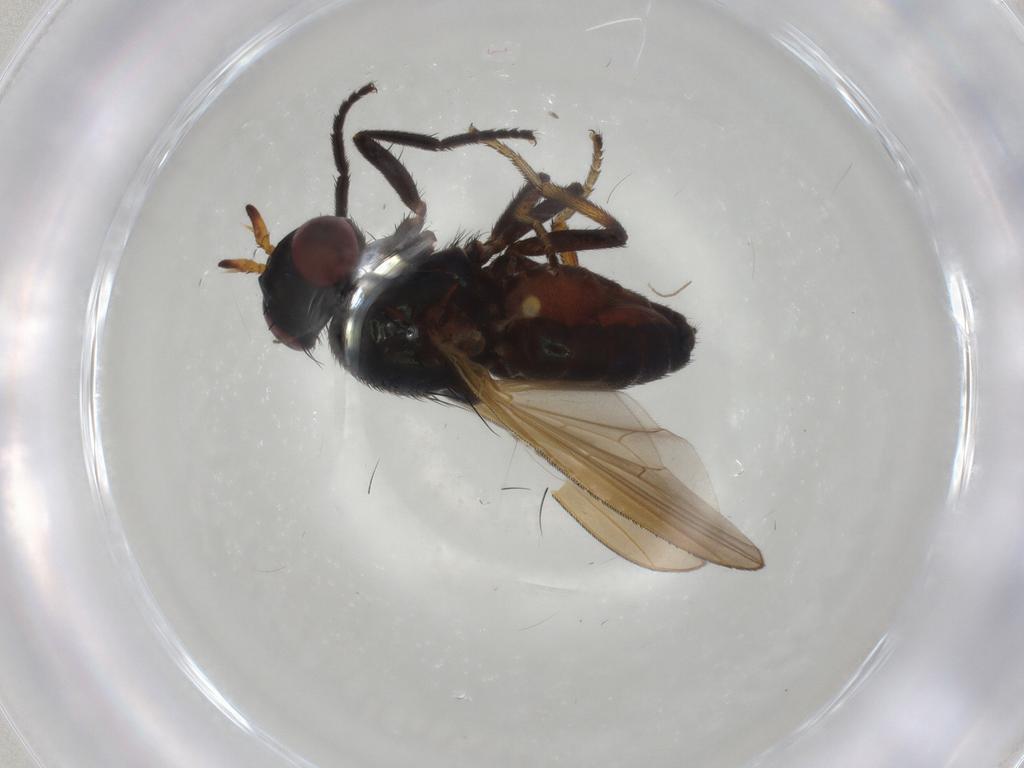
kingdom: Animalia
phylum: Arthropoda
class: Insecta
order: Diptera
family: Lauxaniidae
